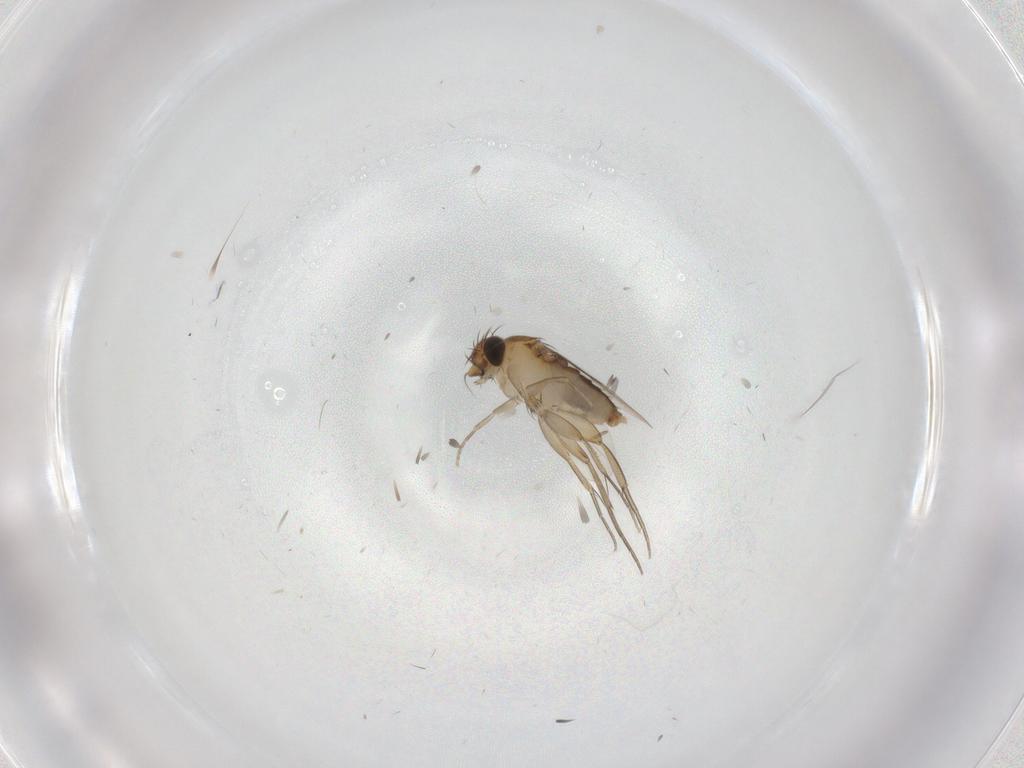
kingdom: Animalia
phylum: Arthropoda
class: Insecta
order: Diptera
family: Phoridae
